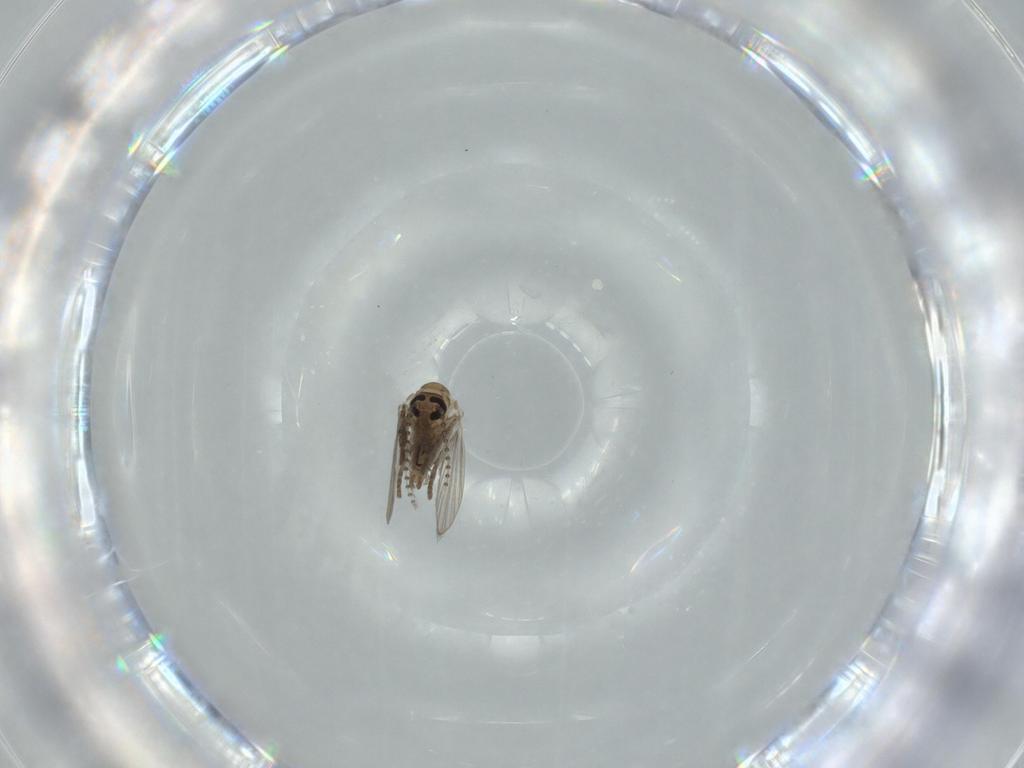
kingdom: Animalia
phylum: Arthropoda
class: Insecta
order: Diptera
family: Psychodidae
